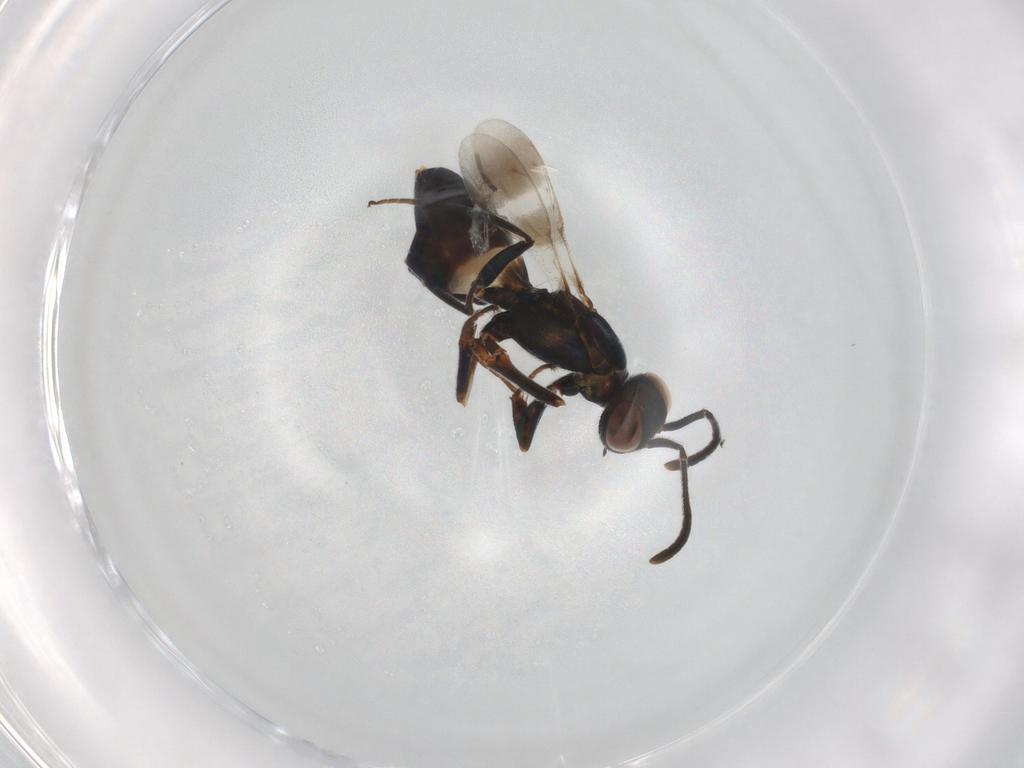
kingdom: Animalia
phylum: Arthropoda
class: Insecta
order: Hymenoptera
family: Eupelmidae
